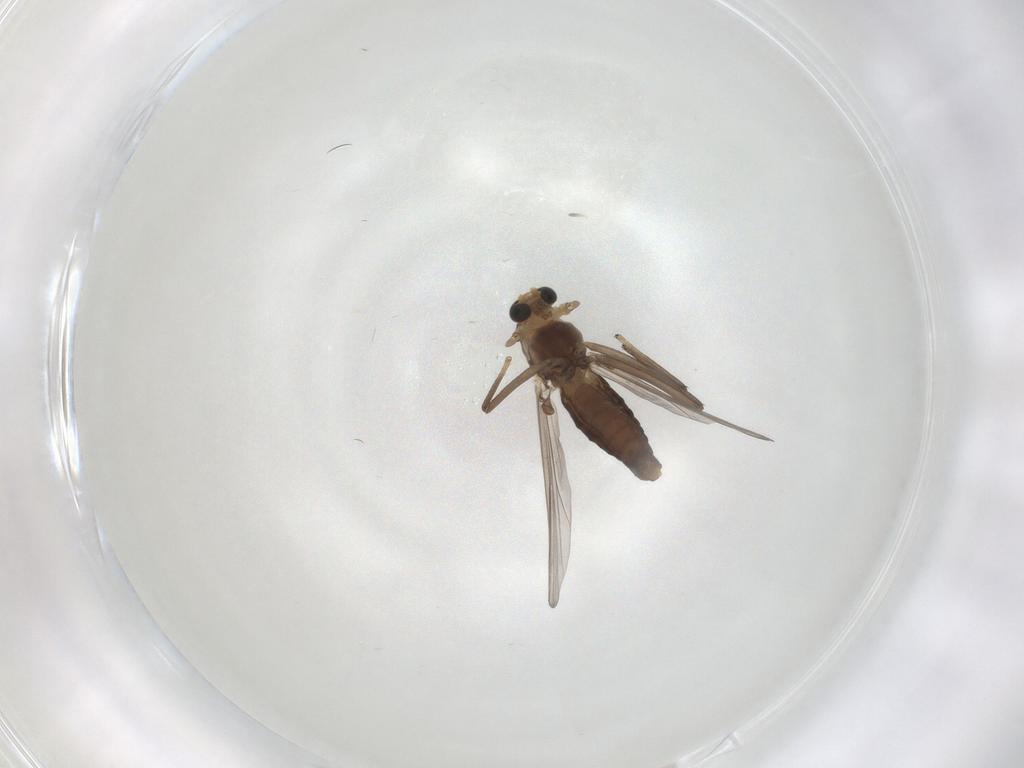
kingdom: Animalia
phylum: Arthropoda
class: Insecta
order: Diptera
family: Chironomidae
